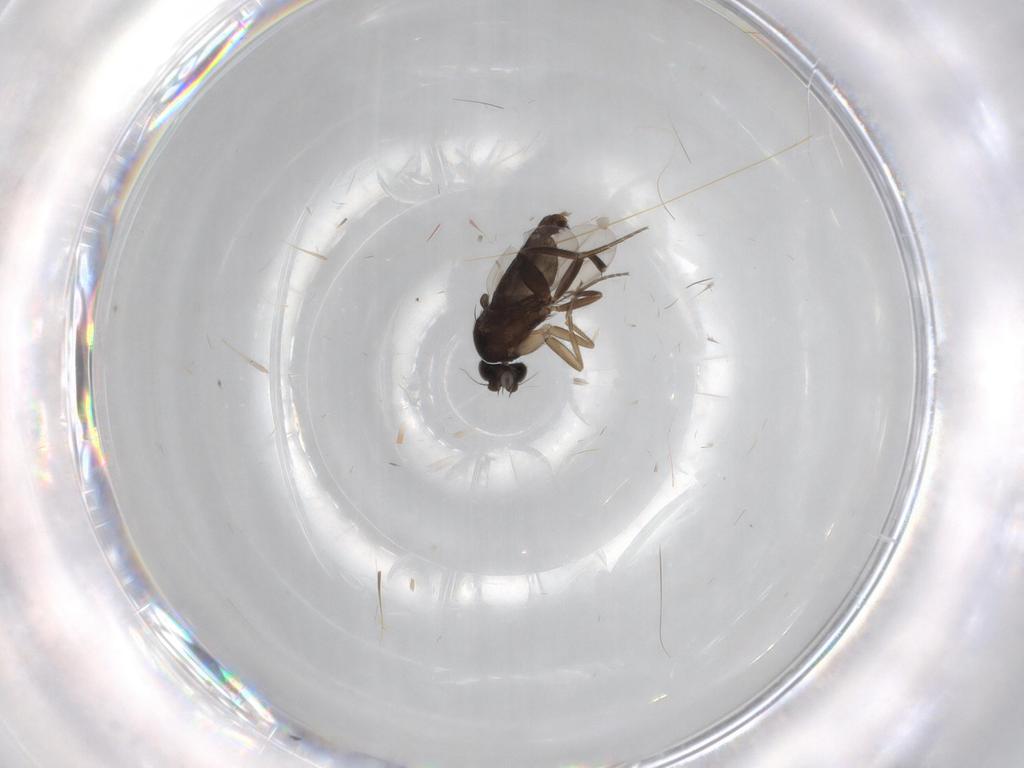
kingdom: Animalia
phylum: Arthropoda
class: Insecta
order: Diptera
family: Phoridae
